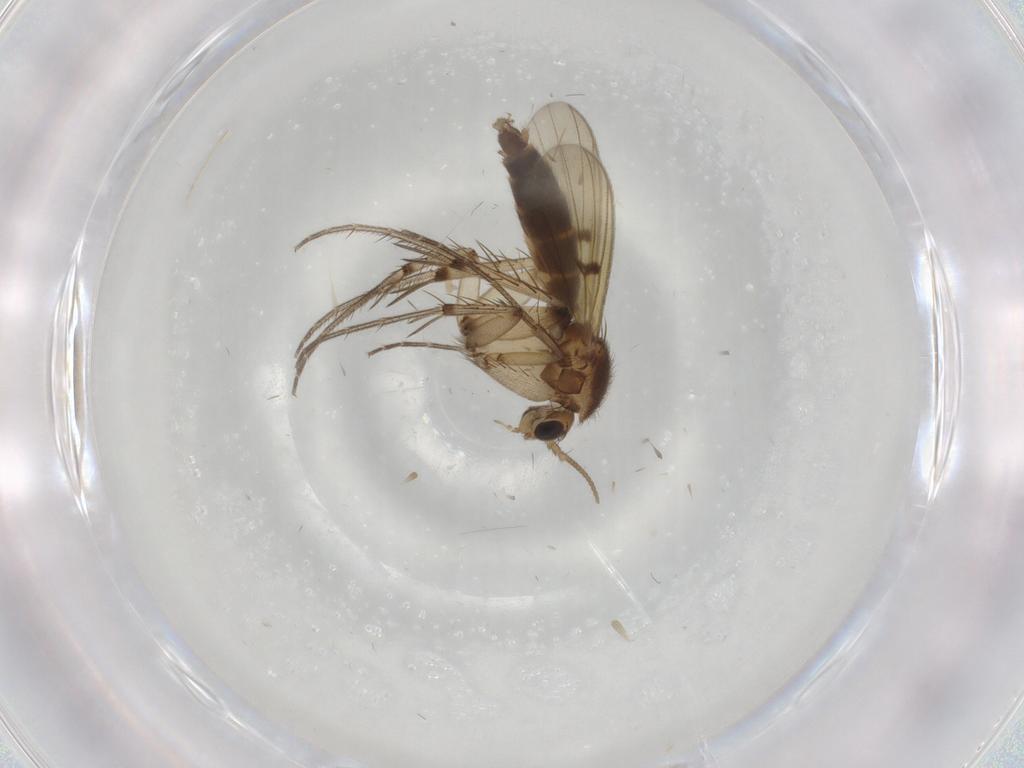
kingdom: Animalia
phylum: Arthropoda
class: Insecta
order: Diptera
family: Mycetophilidae
